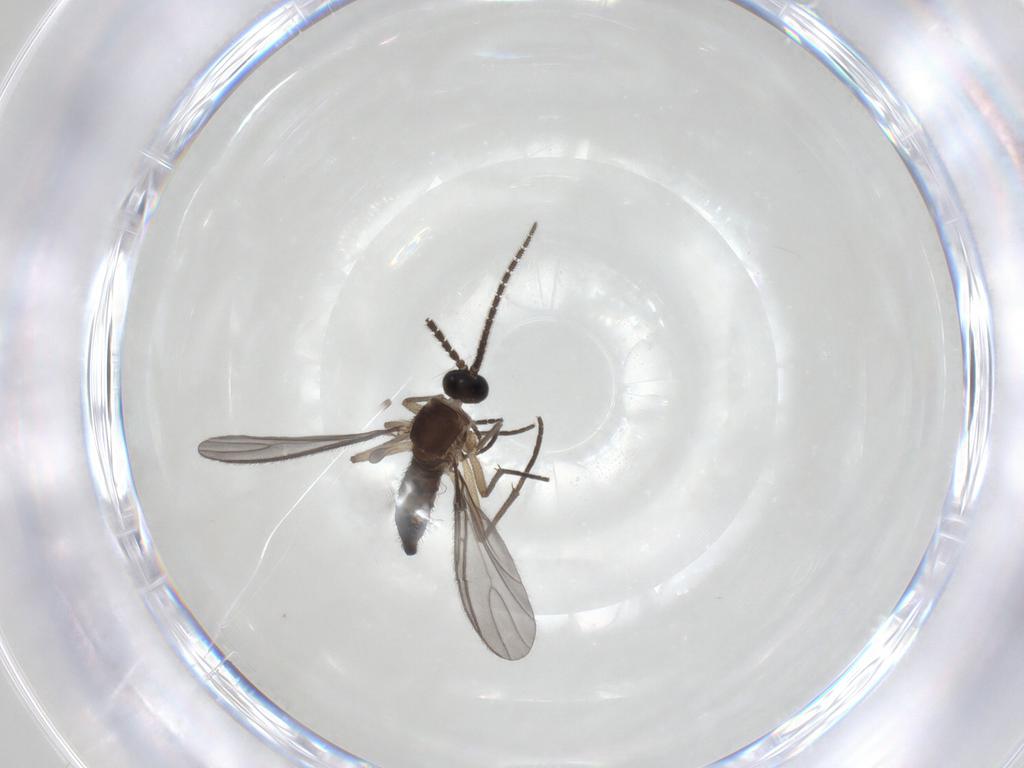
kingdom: Animalia
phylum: Arthropoda
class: Insecta
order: Diptera
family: Sciaridae
